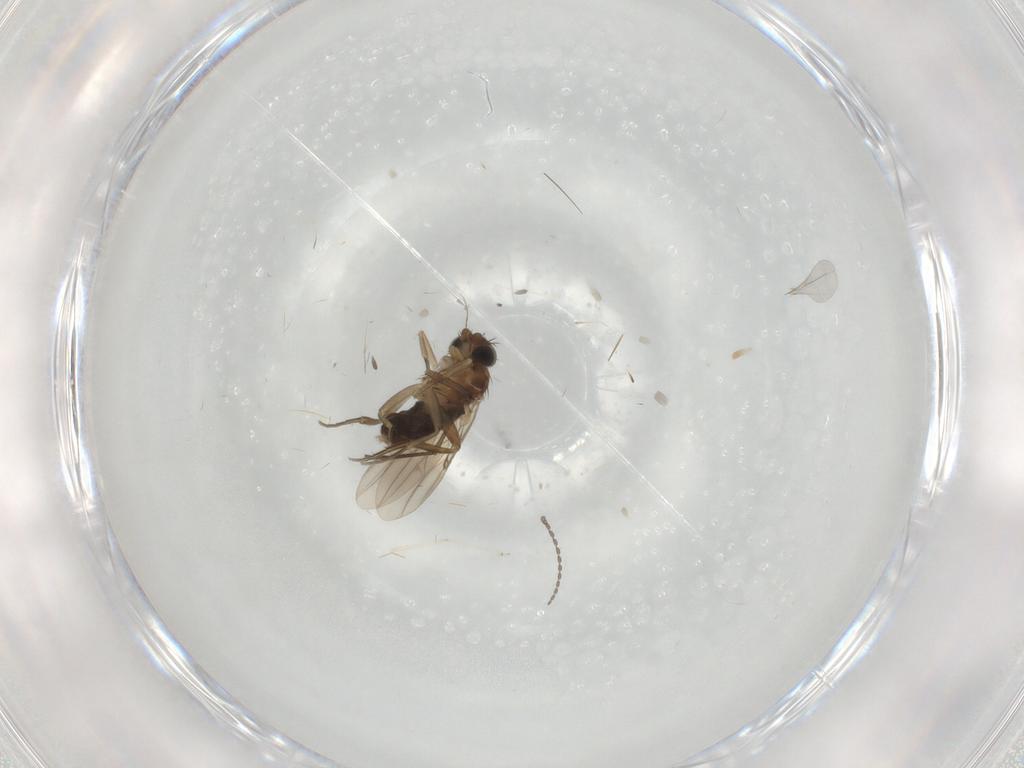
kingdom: Animalia
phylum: Arthropoda
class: Insecta
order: Diptera
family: Cecidomyiidae
